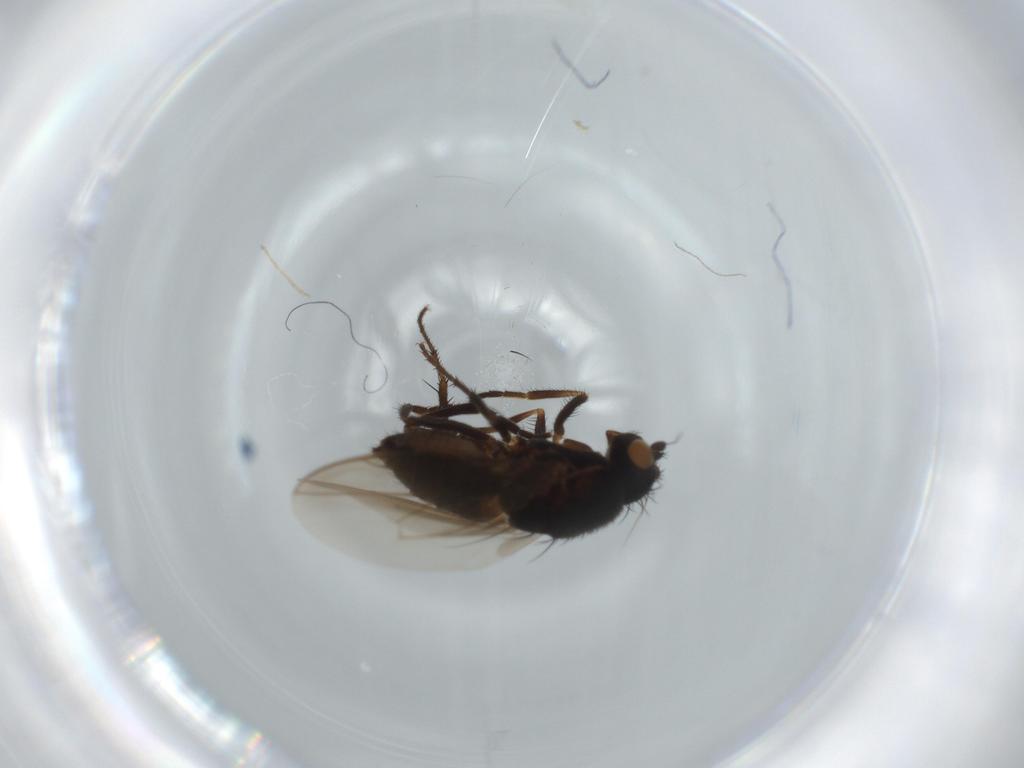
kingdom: Animalia
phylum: Arthropoda
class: Insecta
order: Diptera
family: Sphaeroceridae
